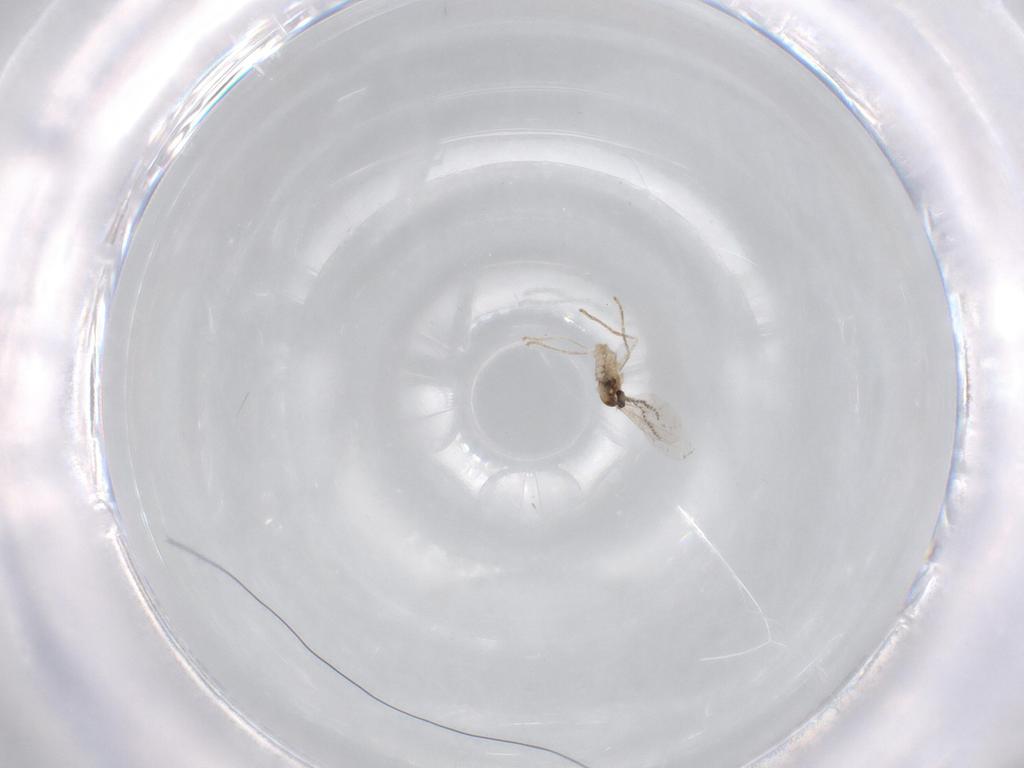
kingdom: Animalia
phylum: Arthropoda
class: Insecta
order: Diptera
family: Cecidomyiidae
